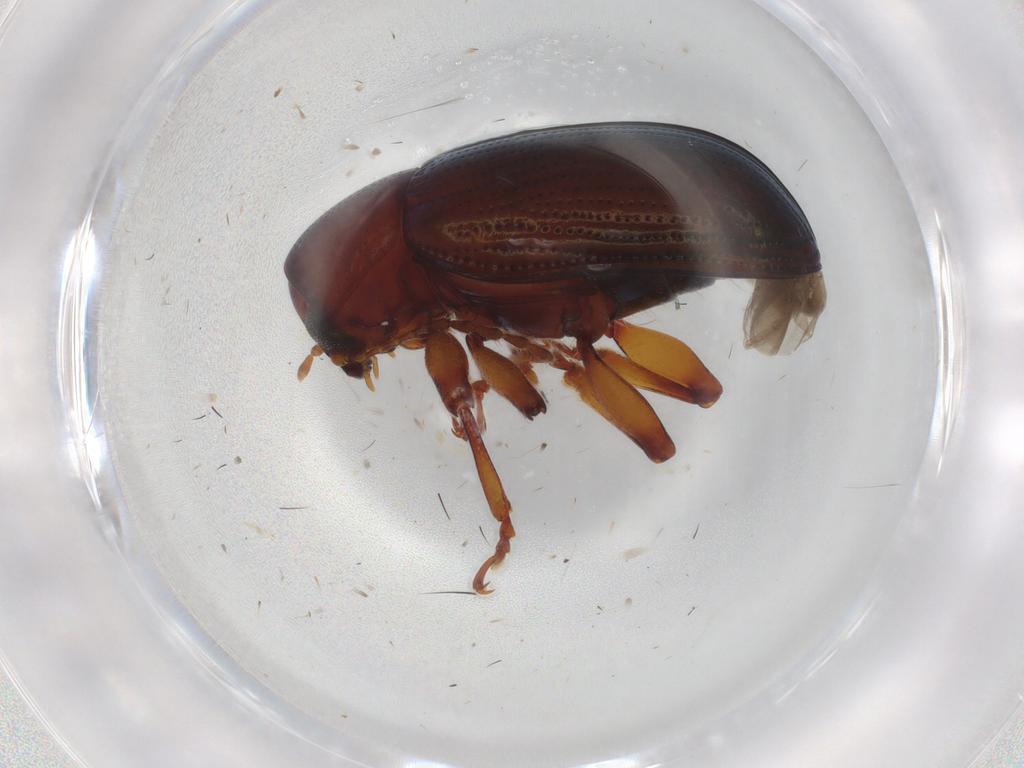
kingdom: Animalia
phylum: Arthropoda
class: Insecta
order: Coleoptera
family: Chrysomelidae
